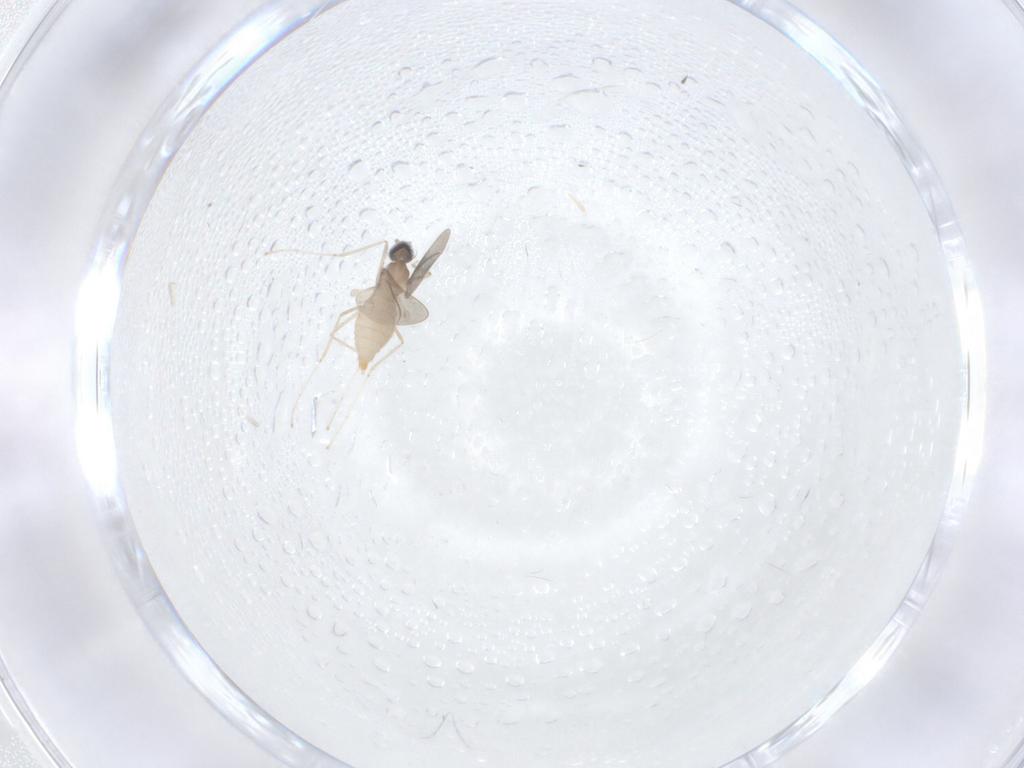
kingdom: Animalia
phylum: Arthropoda
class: Insecta
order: Diptera
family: Cecidomyiidae
